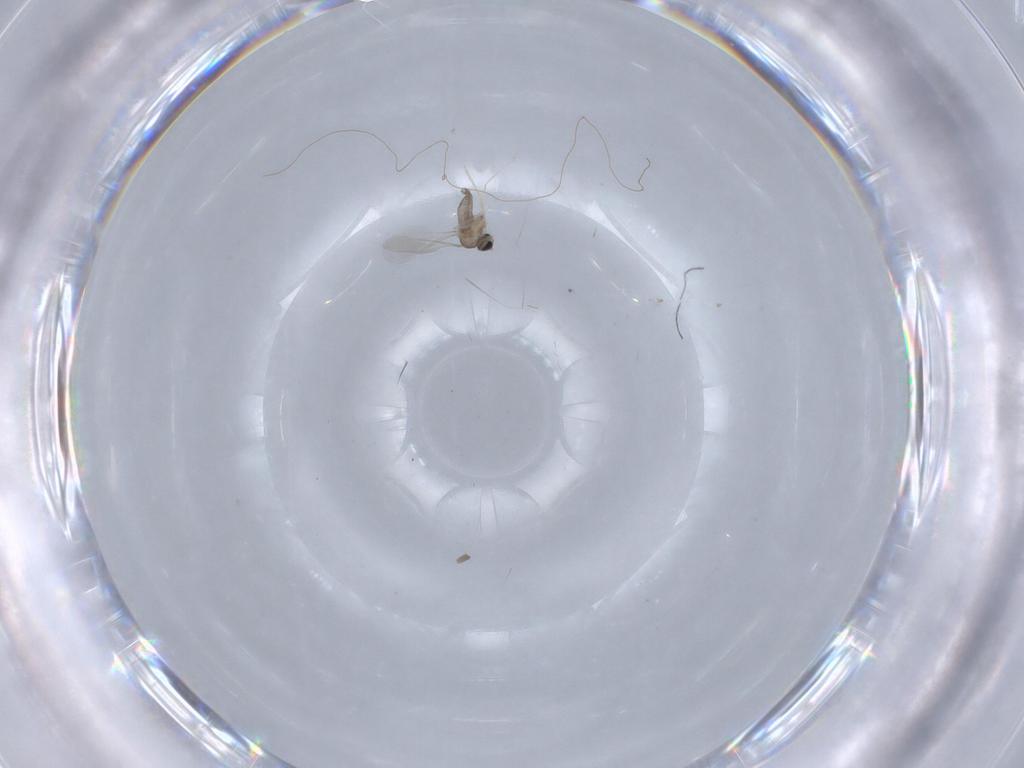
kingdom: Animalia
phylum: Arthropoda
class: Insecta
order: Diptera
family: Cecidomyiidae
